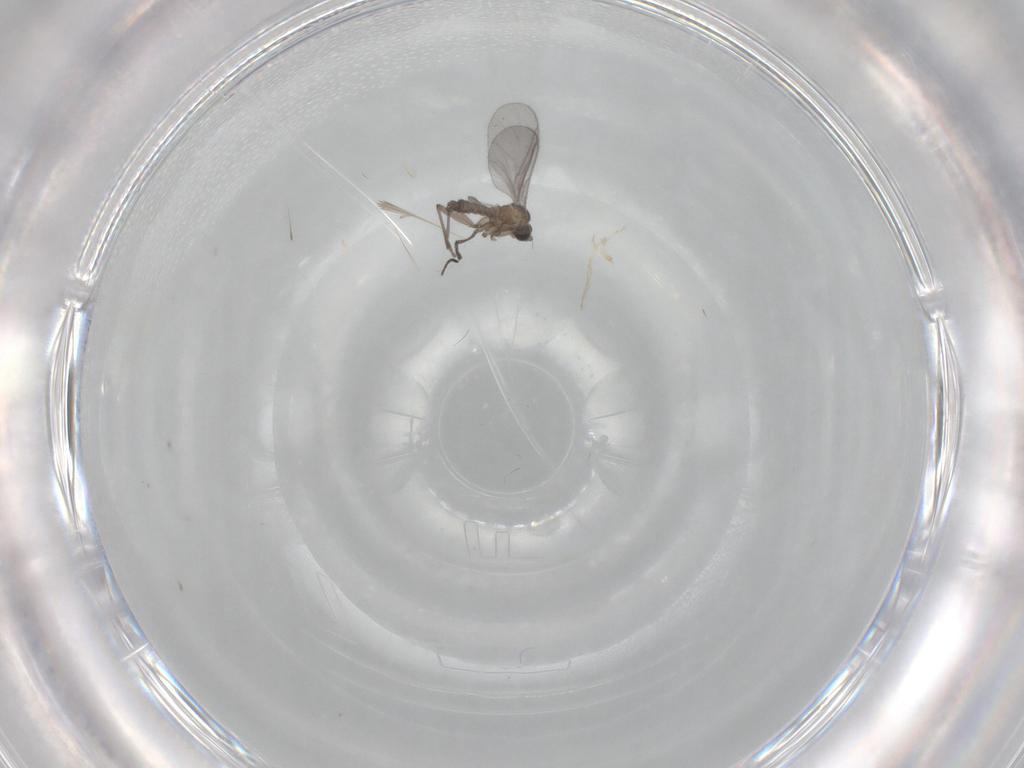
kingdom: Animalia
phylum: Arthropoda
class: Insecta
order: Diptera
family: Sciaridae
